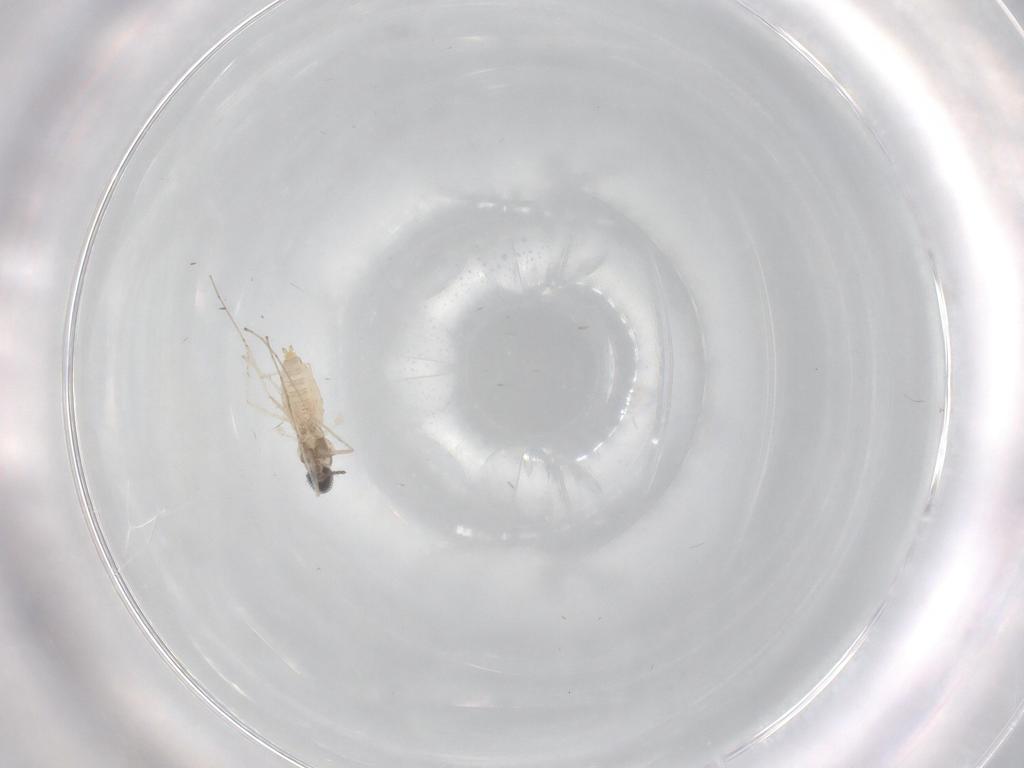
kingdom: Animalia
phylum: Arthropoda
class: Insecta
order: Diptera
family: Cecidomyiidae
